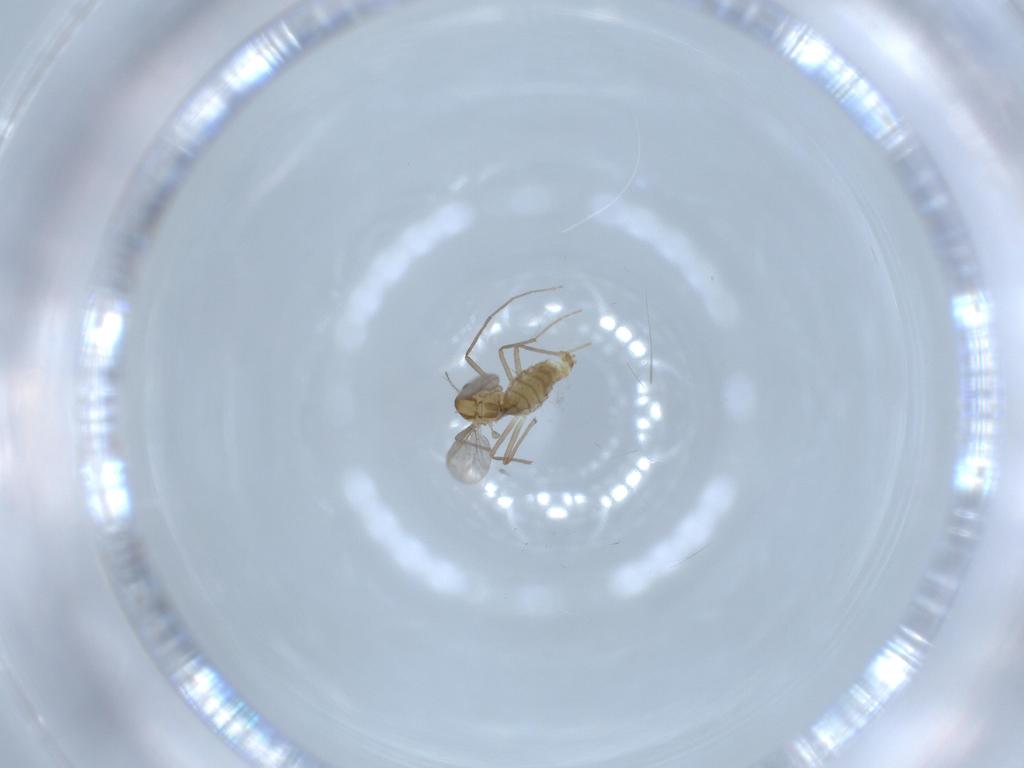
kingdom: Animalia
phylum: Arthropoda
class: Insecta
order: Diptera
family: Chironomidae
